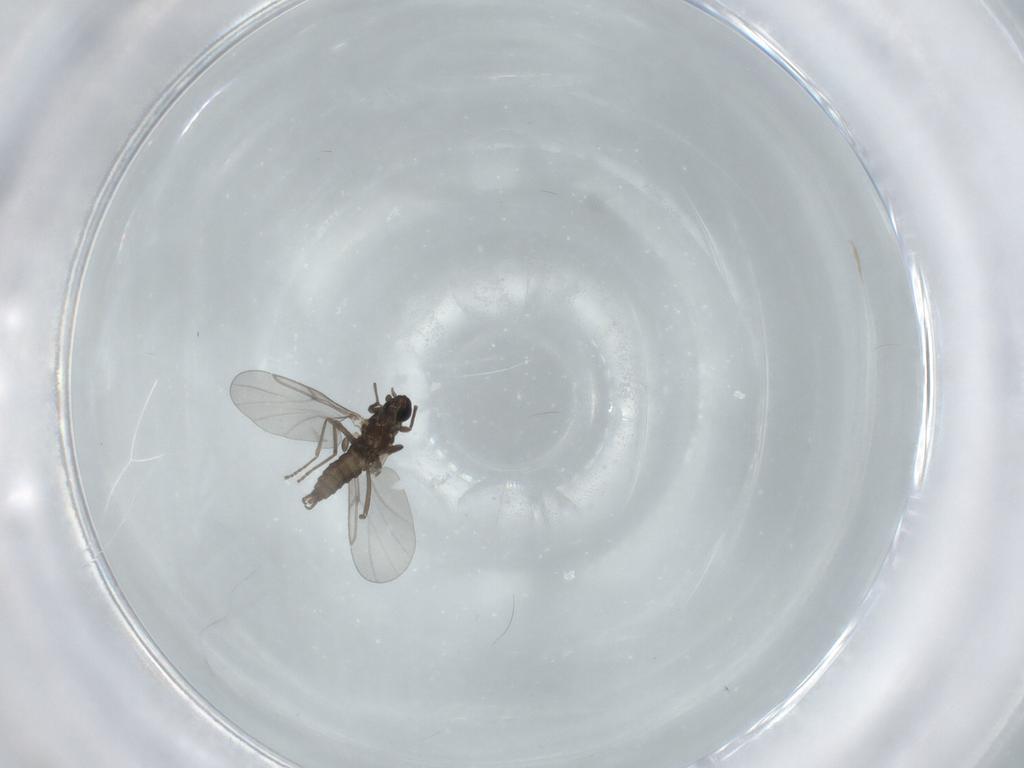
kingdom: Animalia
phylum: Arthropoda
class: Insecta
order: Diptera
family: Cecidomyiidae
